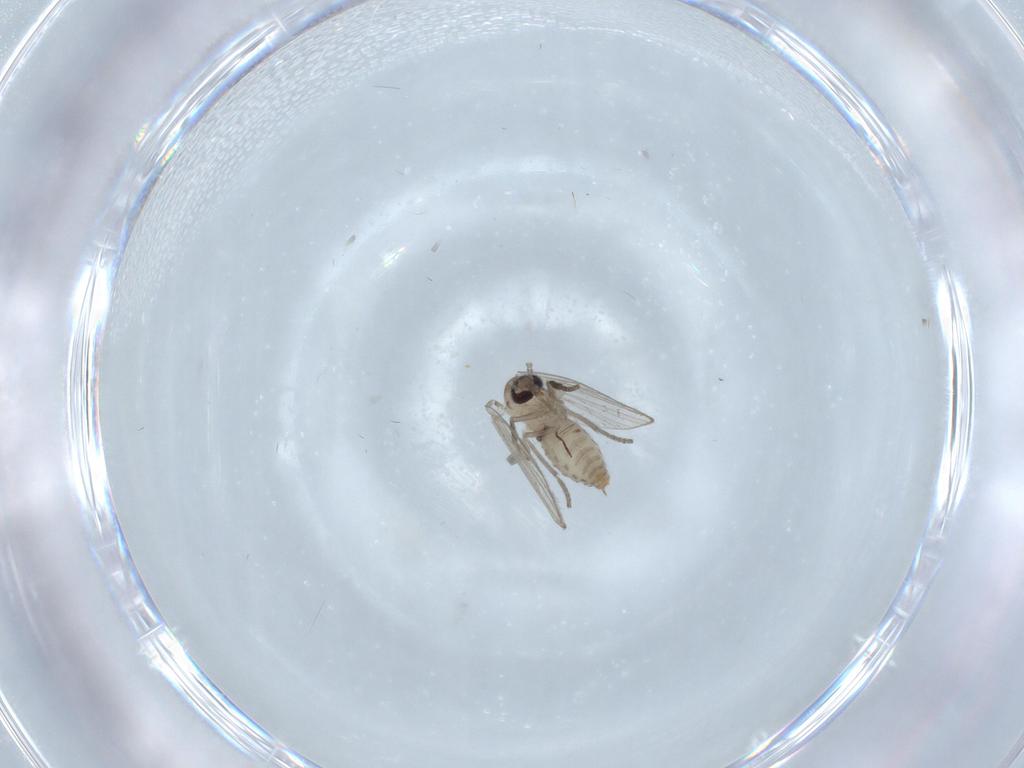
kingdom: Animalia
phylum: Arthropoda
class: Insecta
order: Diptera
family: Psychodidae
